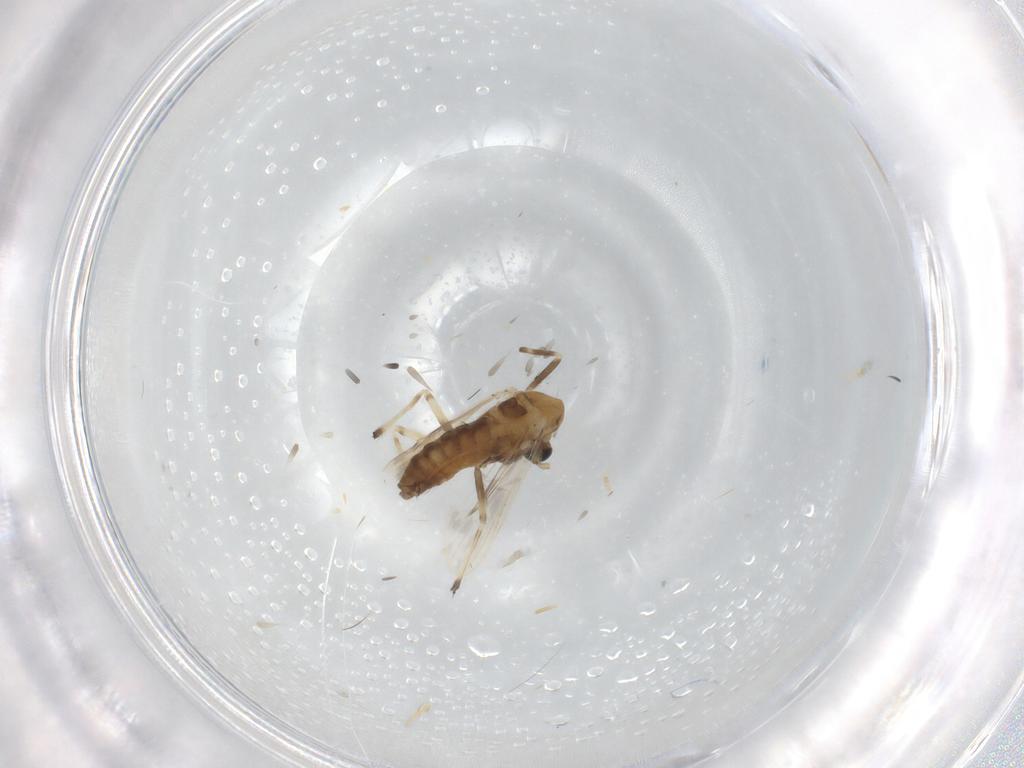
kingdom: Animalia
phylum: Arthropoda
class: Insecta
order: Diptera
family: Chironomidae
